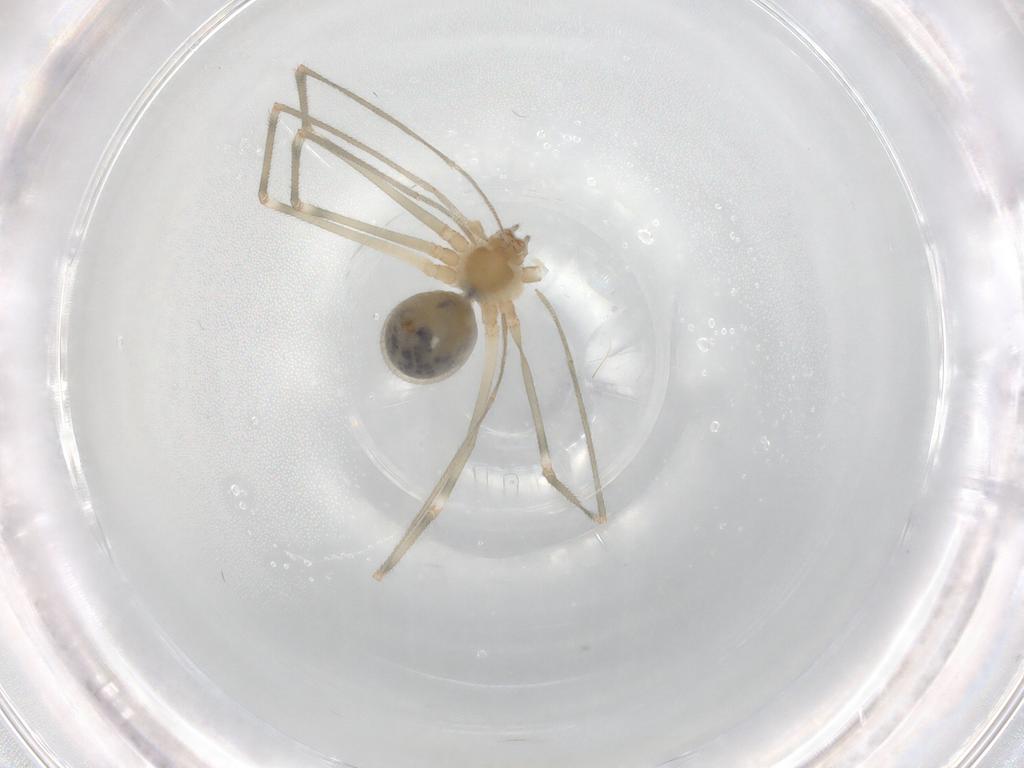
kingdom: Animalia
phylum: Arthropoda
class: Arachnida
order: Araneae
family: Pholcidae
